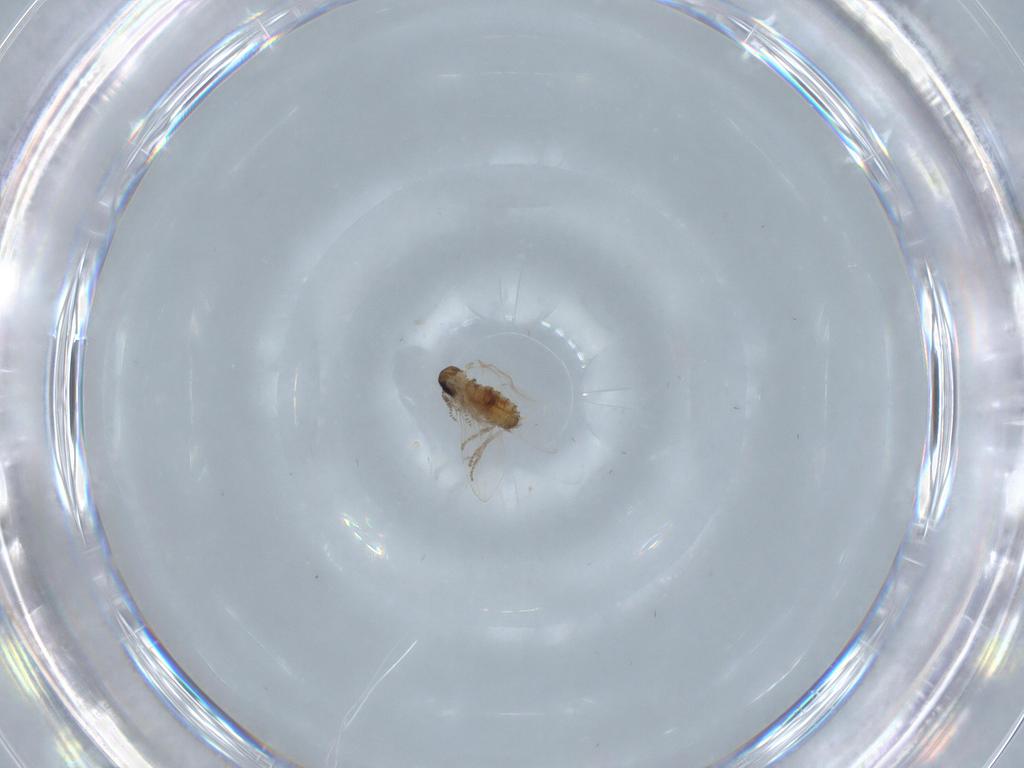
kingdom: Animalia
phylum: Arthropoda
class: Insecta
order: Diptera
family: Psychodidae
